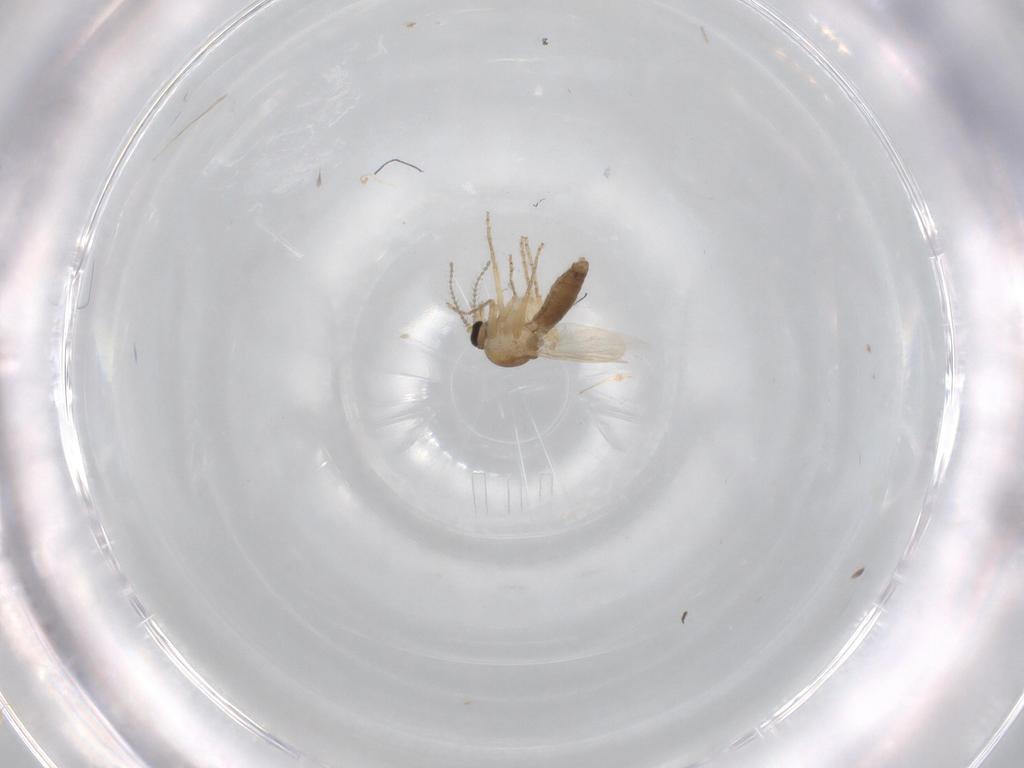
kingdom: Animalia
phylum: Arthropoda
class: Insecta
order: Diptera
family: Ceratopogonidae
